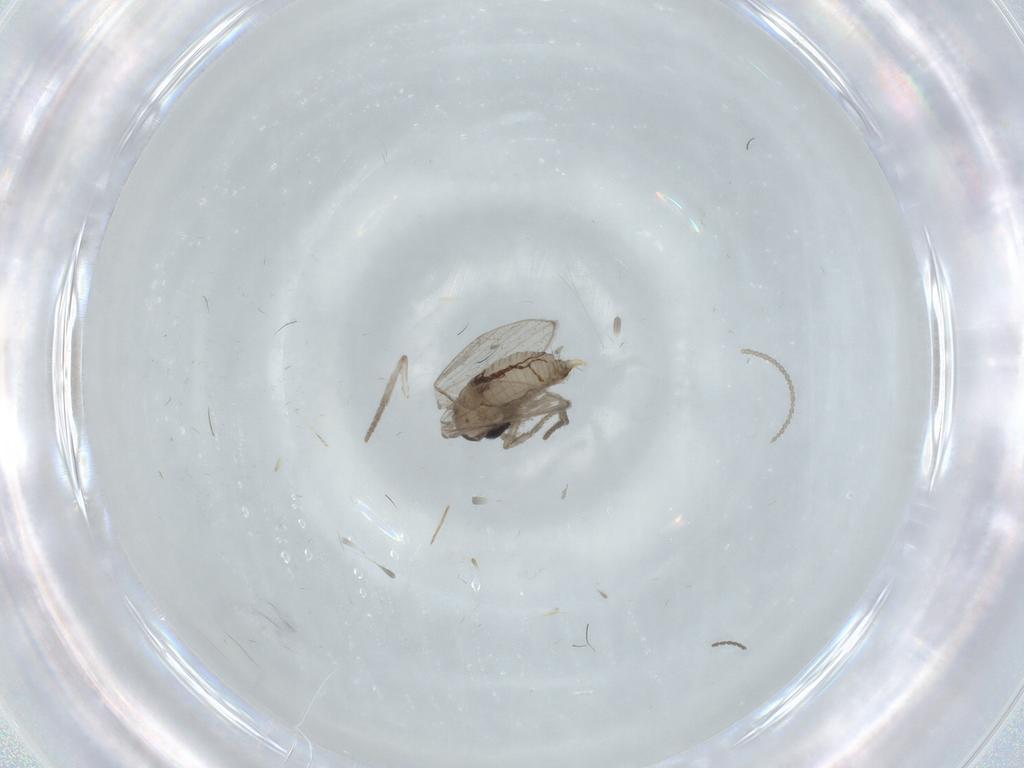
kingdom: Animalia
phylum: Arthropoda
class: Insecta
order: Diptera
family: Psychodidae
